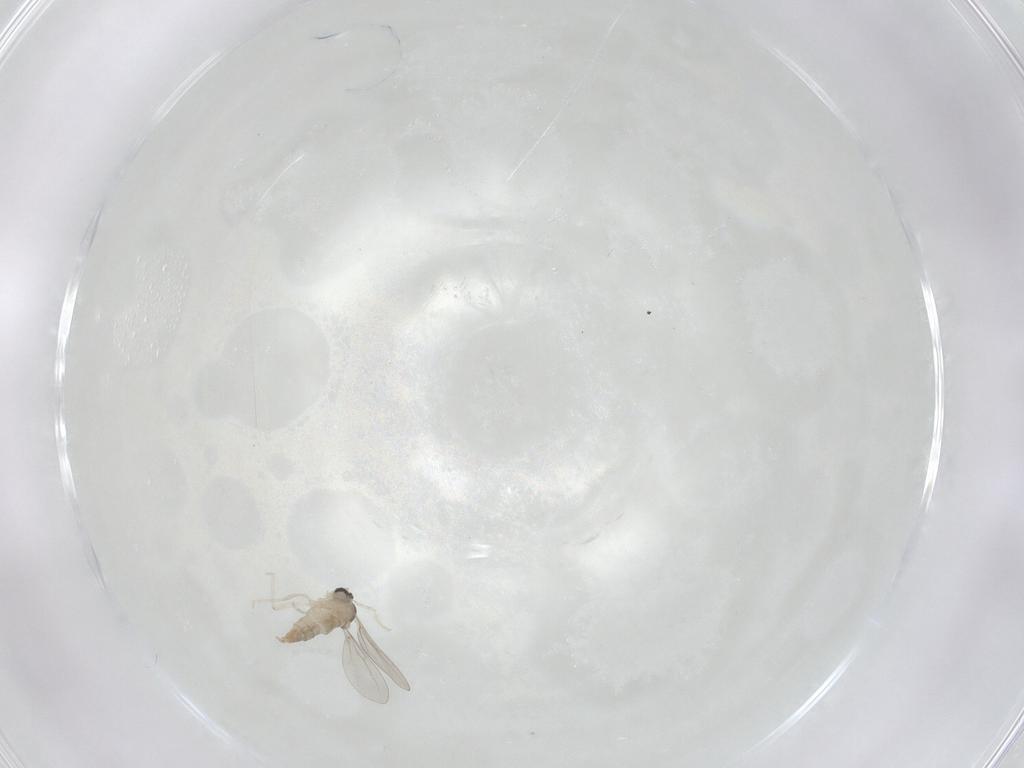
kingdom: Animalia
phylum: Arthropoda
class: Insecta
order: Diptera
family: Chironomidae
